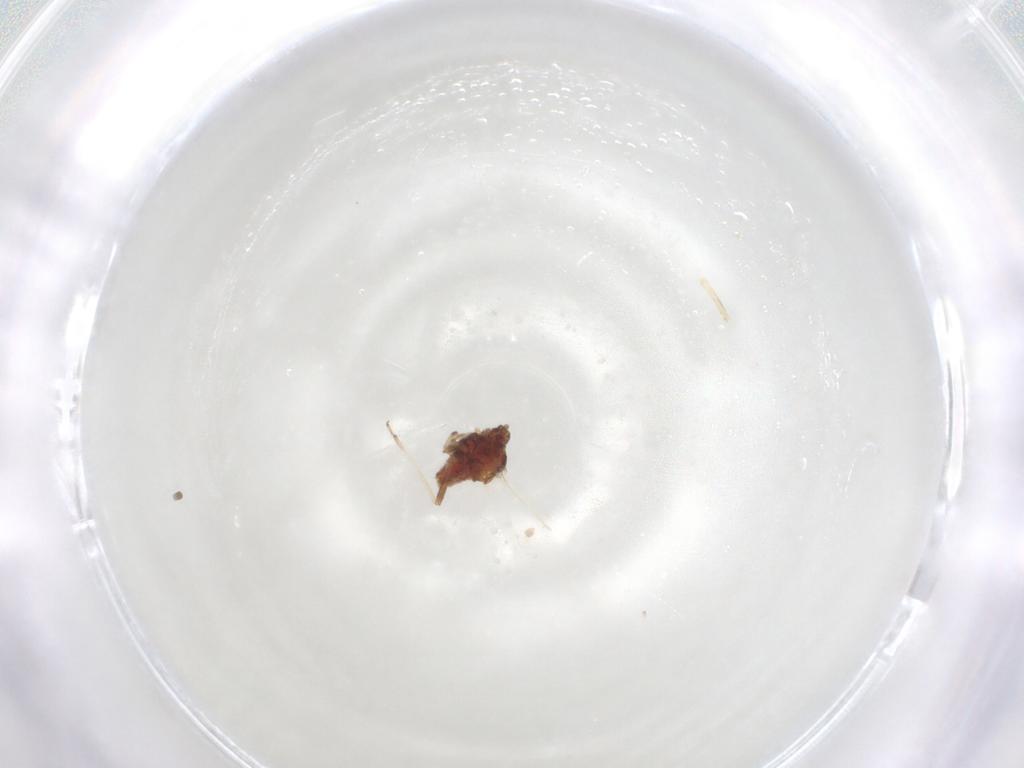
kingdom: Animalia
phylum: Arthropoda
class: Insecta
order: Hemiptera
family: Aphididae
